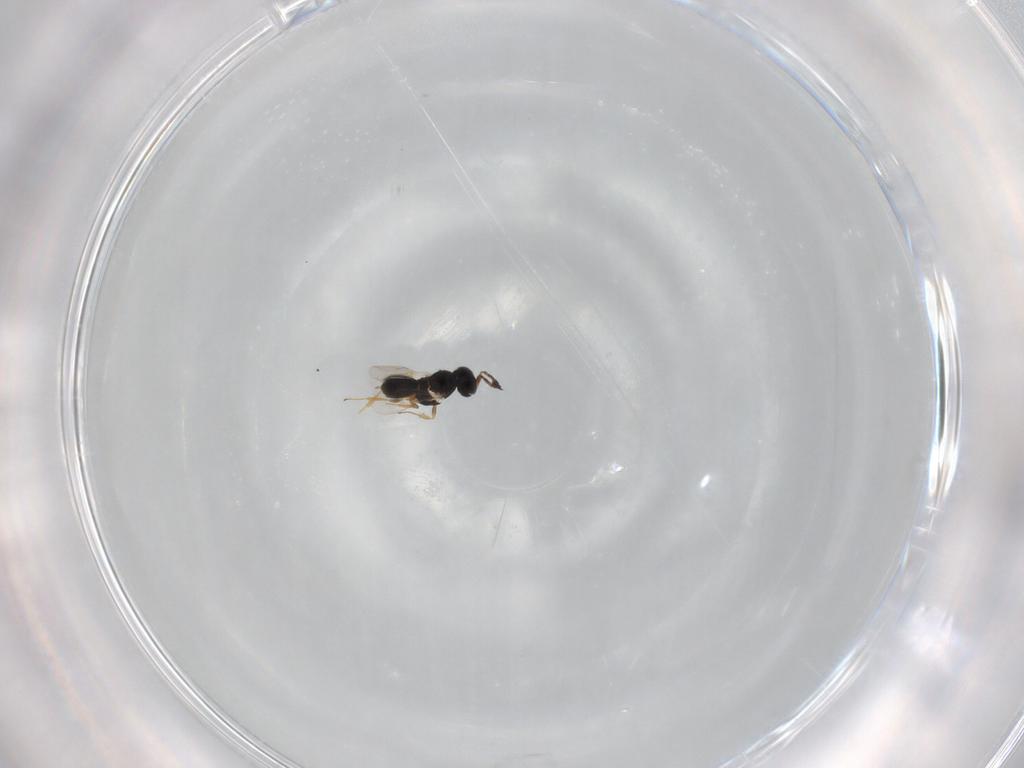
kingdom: Animalia
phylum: Arthropoda
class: Insecta
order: Hymenoptera
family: Scelionidae
